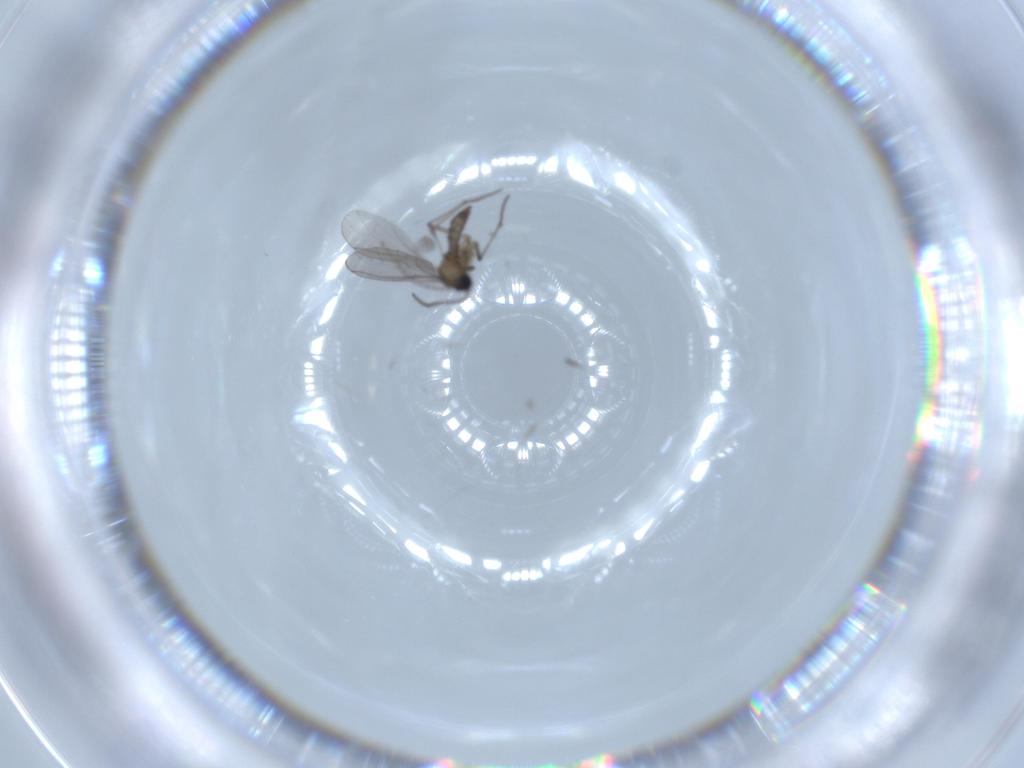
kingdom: Animalia
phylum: Arthropoda
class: Insecta
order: Diptera
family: Sciaridae
